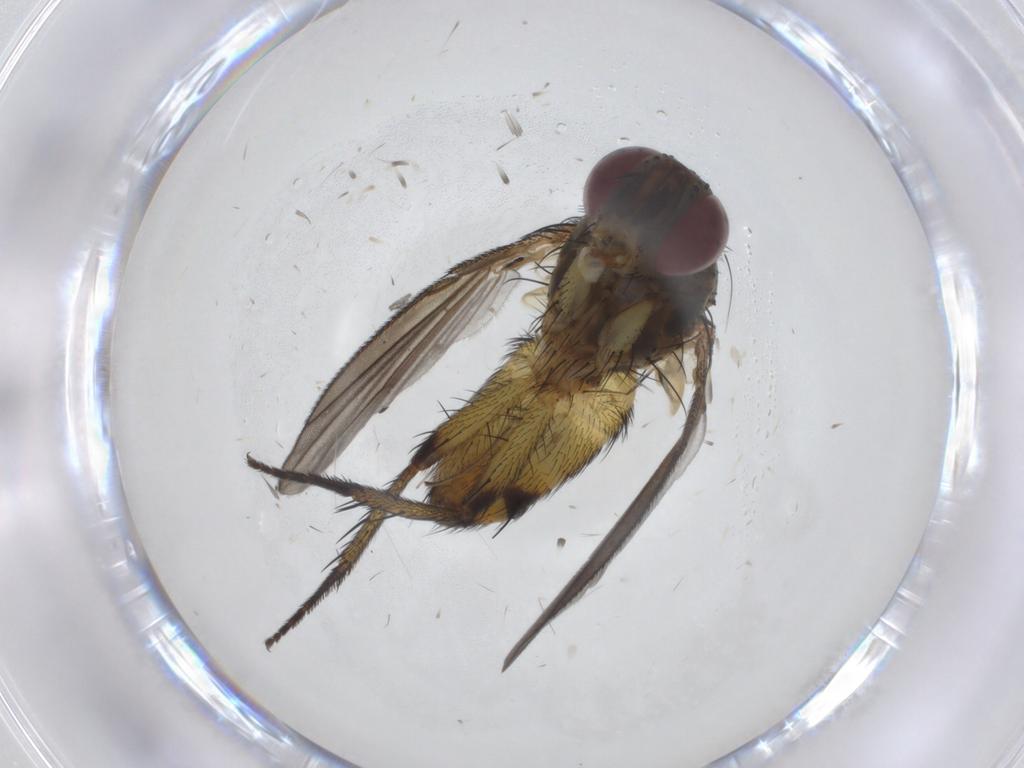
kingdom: Animalia
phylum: Arthropoda
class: Insecta
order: Diptera
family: Tachinidae
